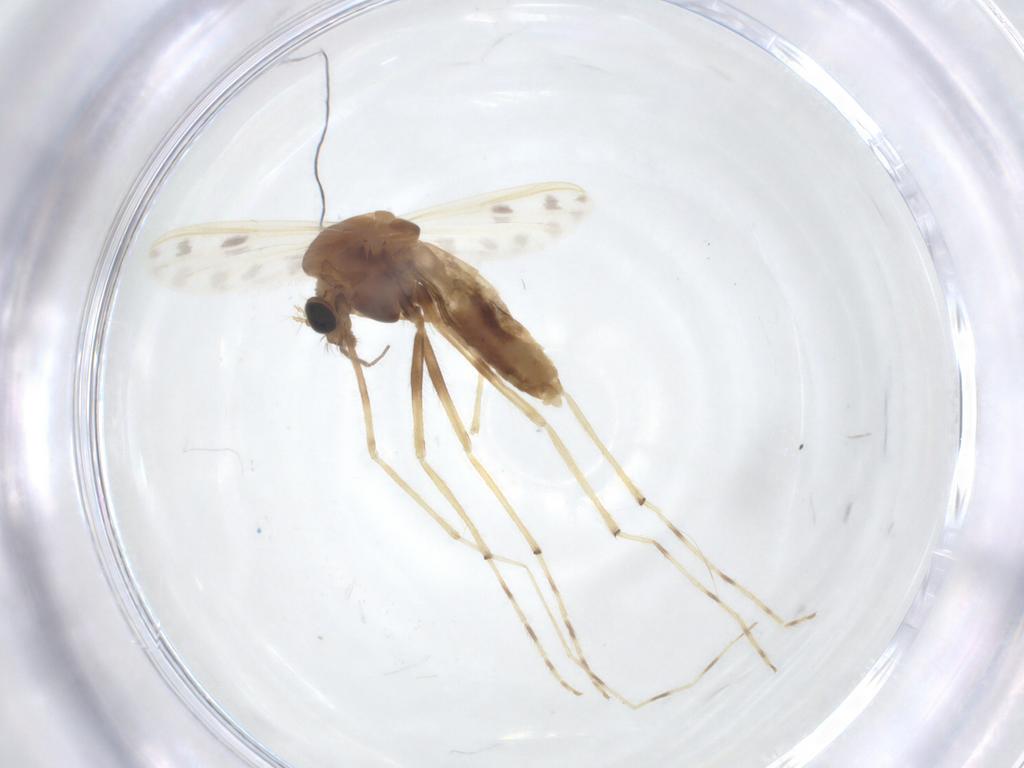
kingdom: Animalia
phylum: Arthropoda
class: Insecta
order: Diptera
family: Chironomidae
